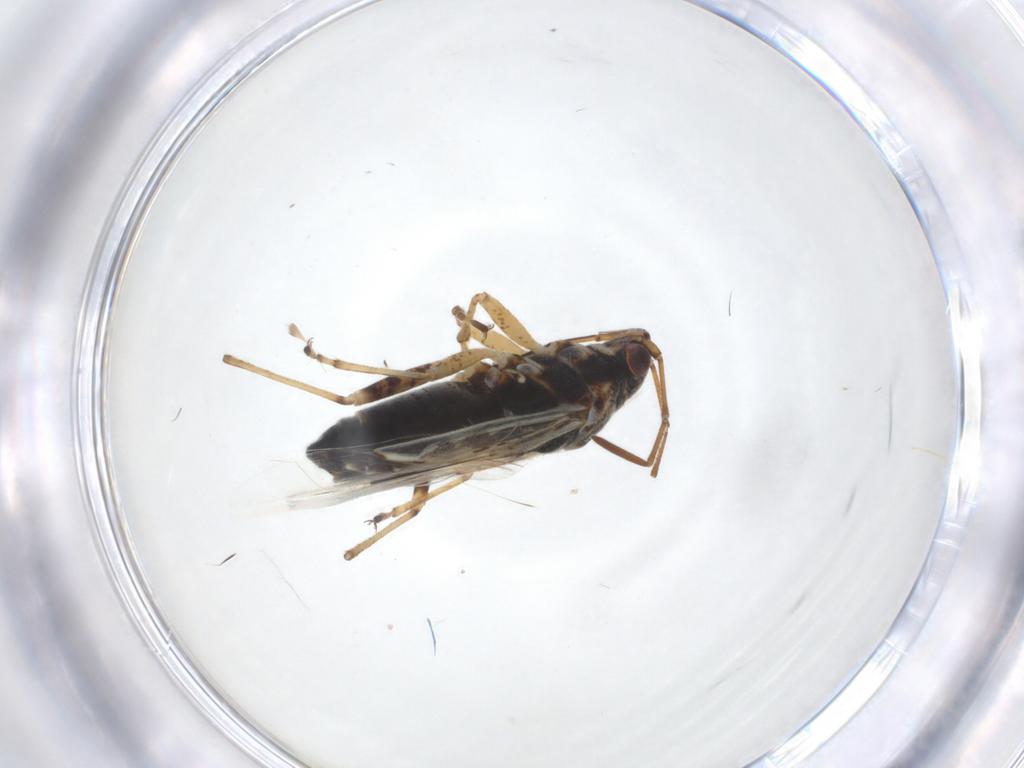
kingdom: Animalia
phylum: Arthropoda
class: Insecta
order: Hemiptera
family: Lygaeidae
